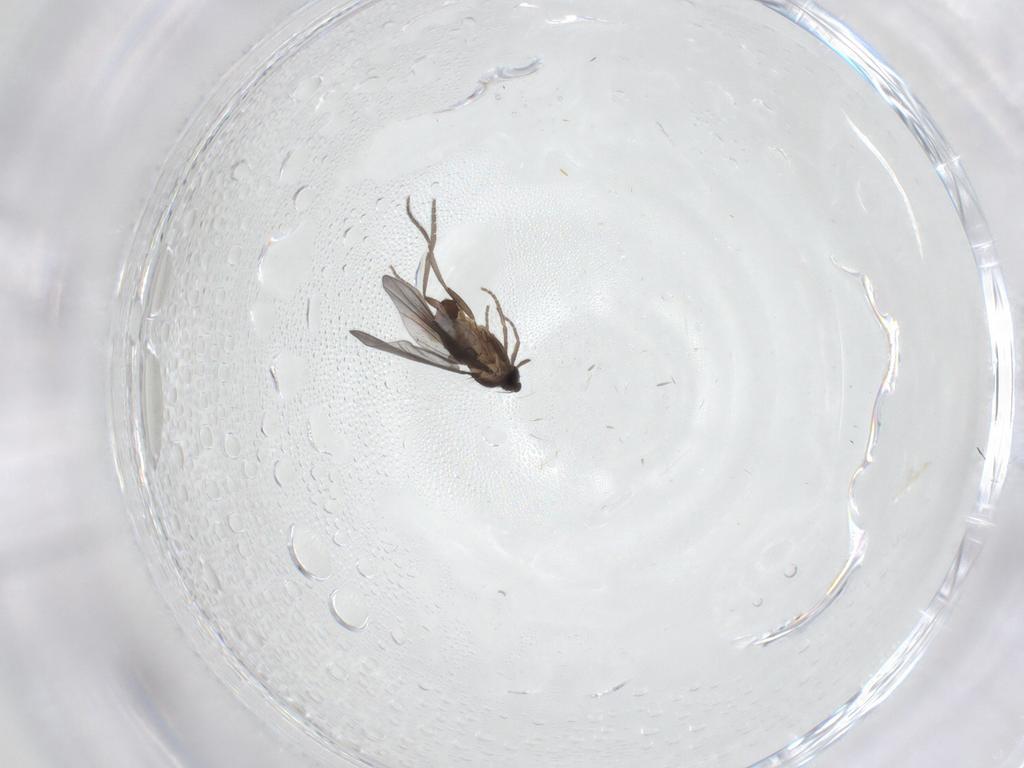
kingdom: Animalia
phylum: Arthropoda
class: Insecta
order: Diptera
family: Phoridae
